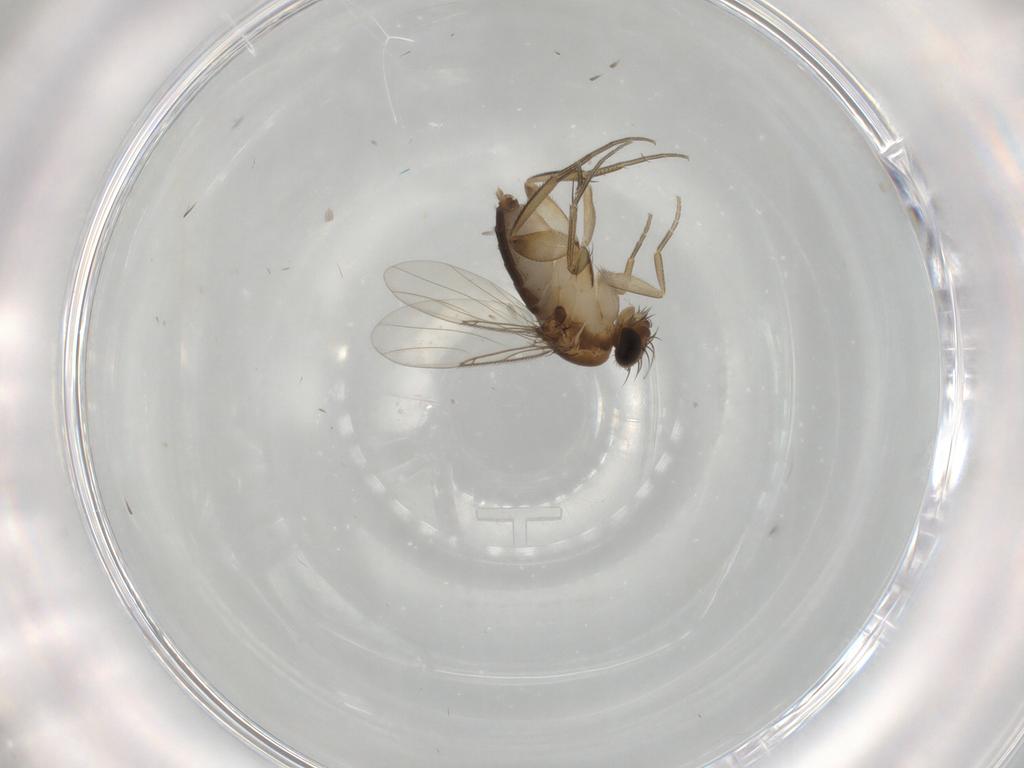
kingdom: Animalia
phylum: Arthropoda
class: Insecta
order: Diptera
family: Phoridae
